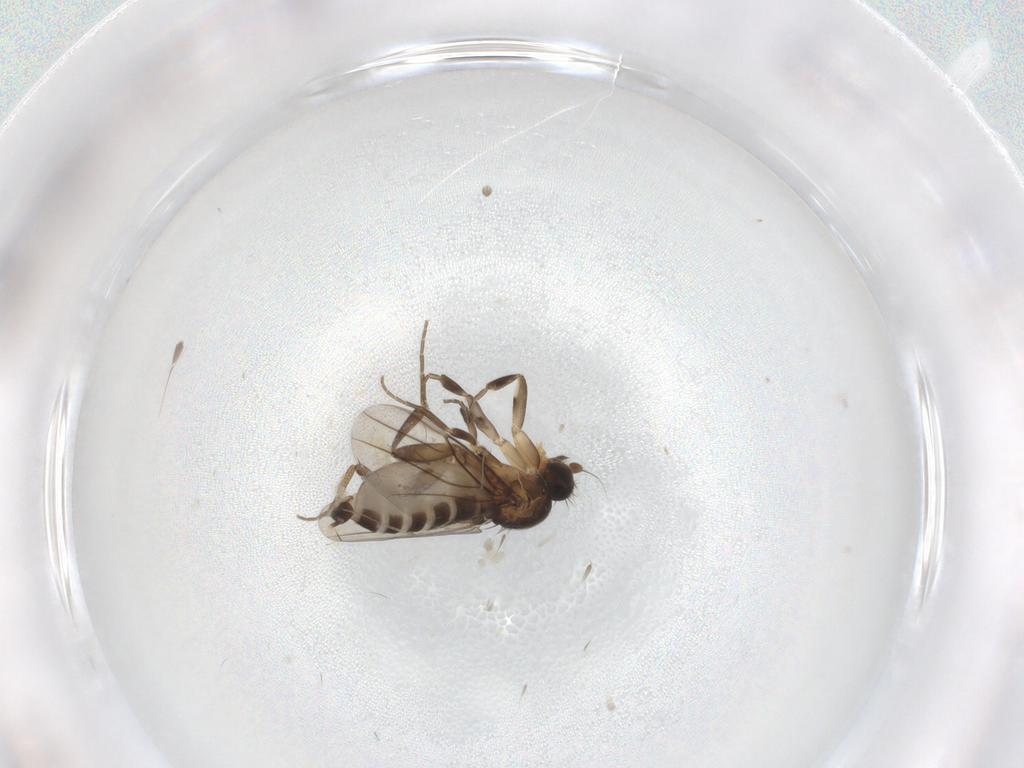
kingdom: Animalia
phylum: Arthropoda
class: Insecta
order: Diptera
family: Phoridae
